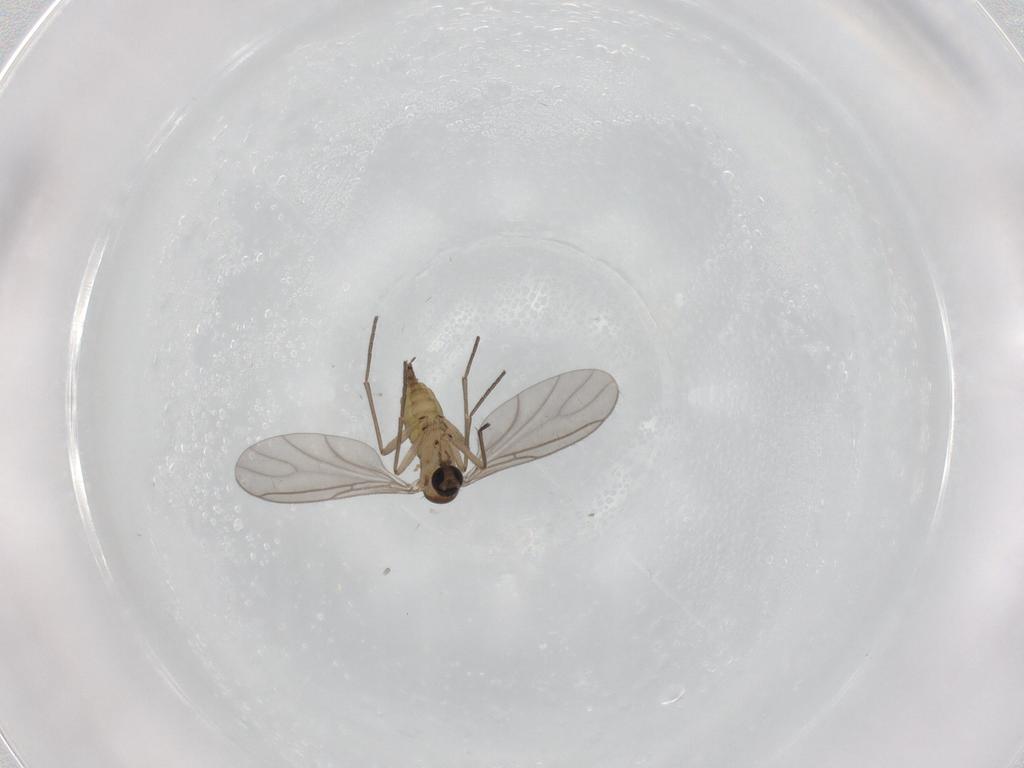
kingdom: Animalia
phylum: Arthropoda
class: Insecta
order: Diptera
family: Sciaridae
